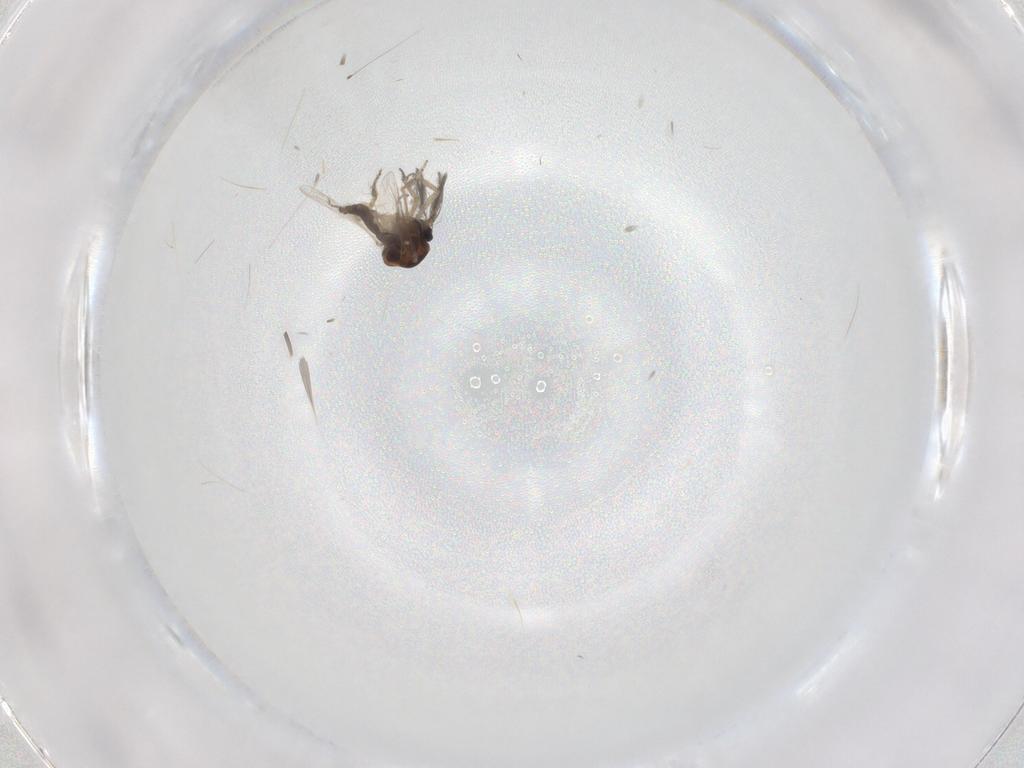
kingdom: Animalia
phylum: Arthropoda
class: Insecta
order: Diptera
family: Ceratopogonidae
